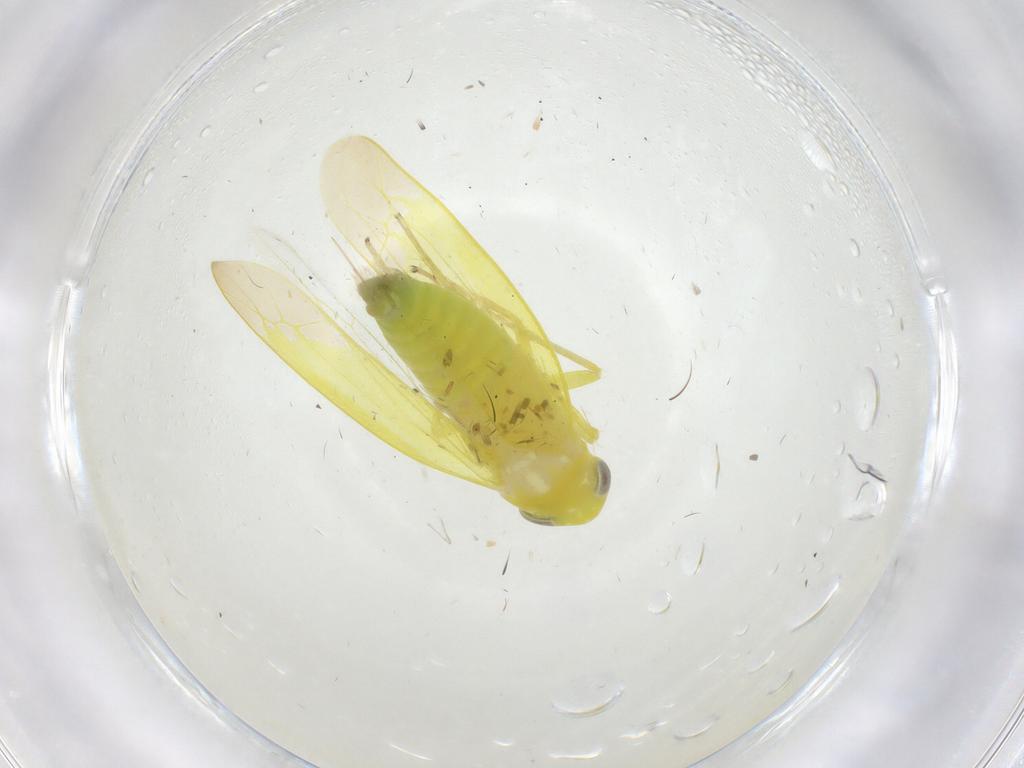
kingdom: Animalia
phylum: Arthropoda
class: Insecta
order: Hemiptera
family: Cicadellidae
